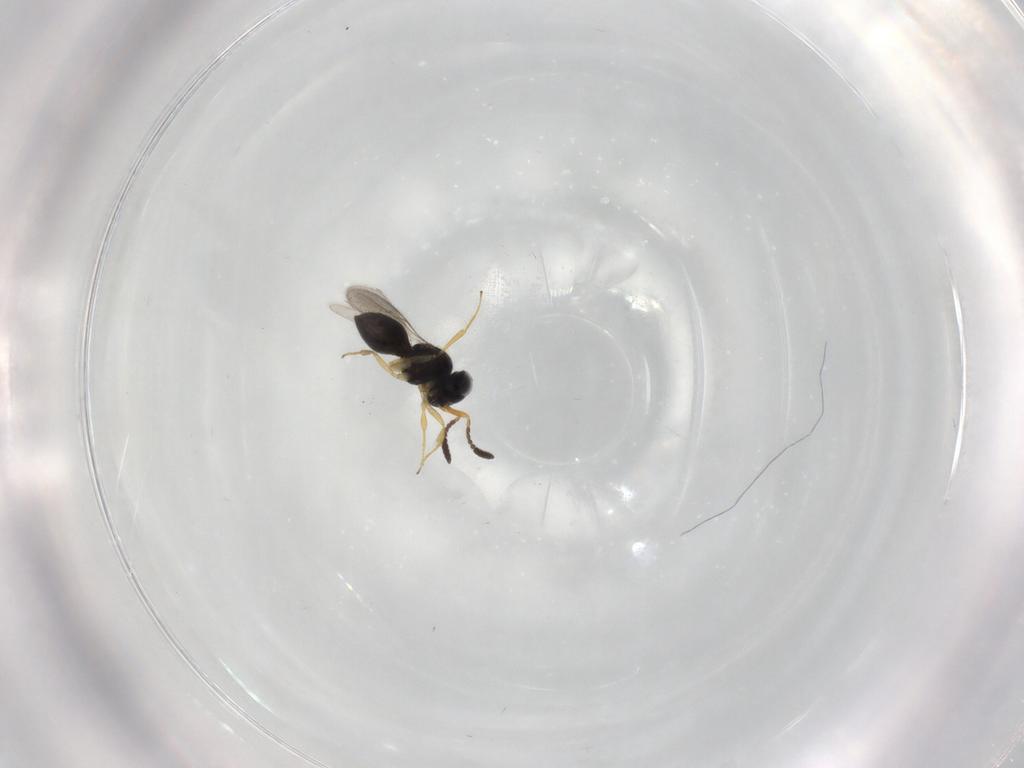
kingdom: Animalia
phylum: Arthropoda
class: Insecta
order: Hymenoptera
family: Scelionidae
